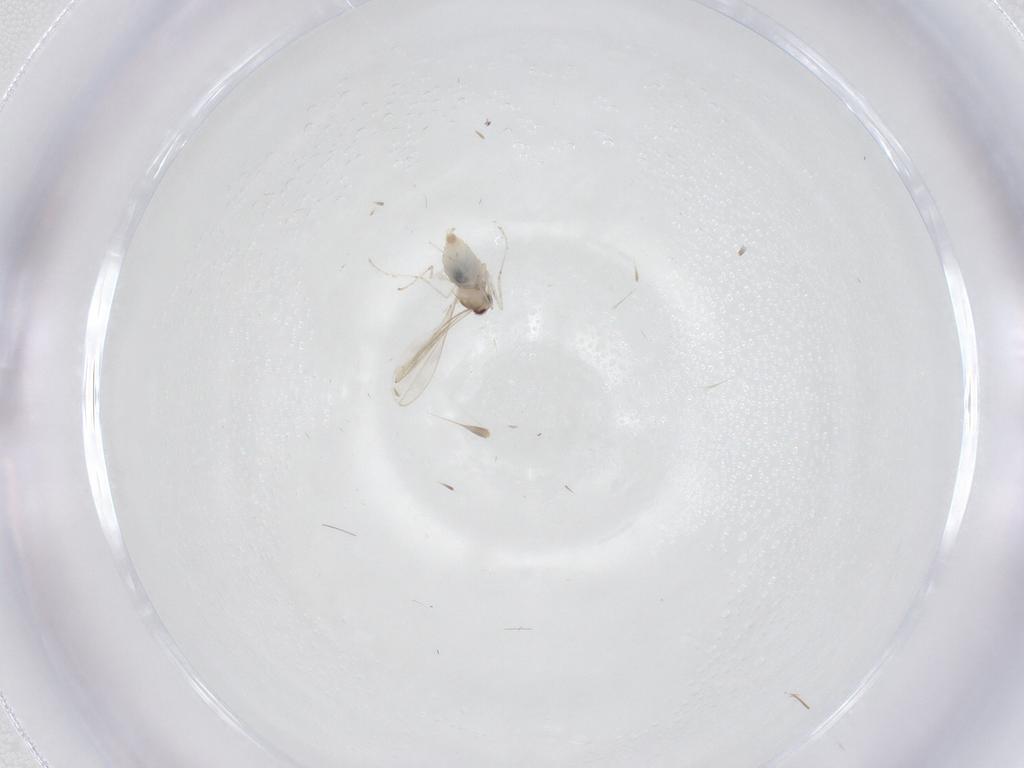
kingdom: Animalia
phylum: Arthropoda
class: Insecta
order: Diptera
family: Cecidomyiidae
